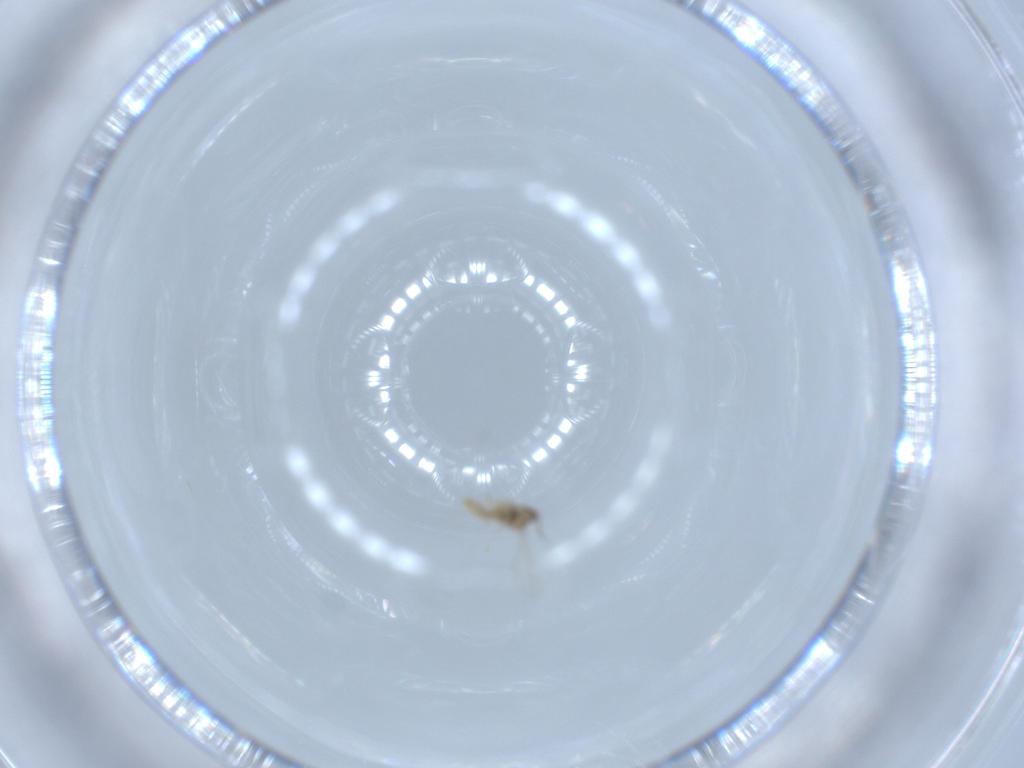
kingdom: Animalia
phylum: Arthropoda
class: Insecta
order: Diptera
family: Cecidomyiidae
